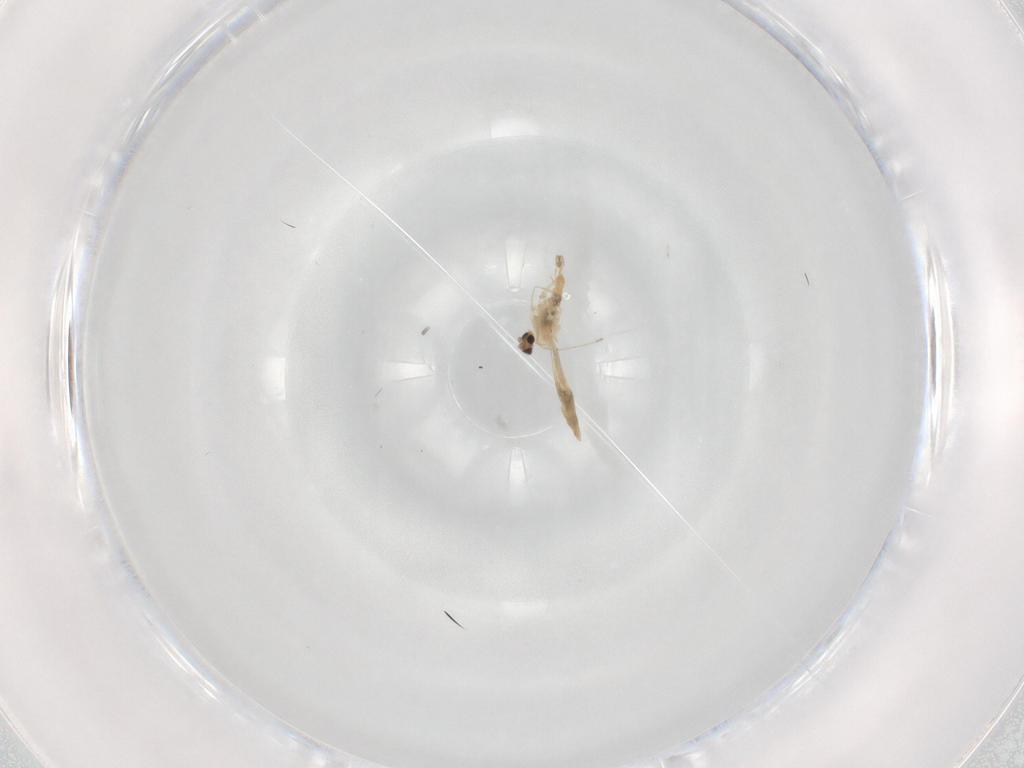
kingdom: Animalia
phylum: Arthropoda
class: Insecta
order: Diptera
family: Cecidomyiidae
